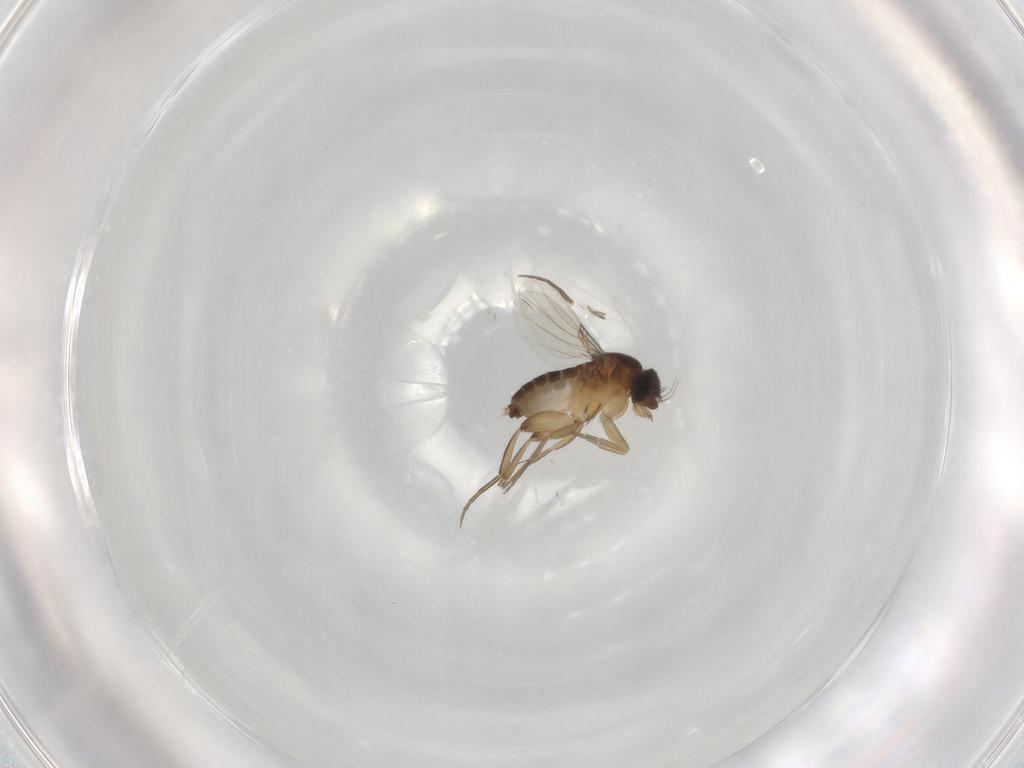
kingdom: Animalia
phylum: Arthropoda
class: Insecta
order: Diptera
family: Phoridae
